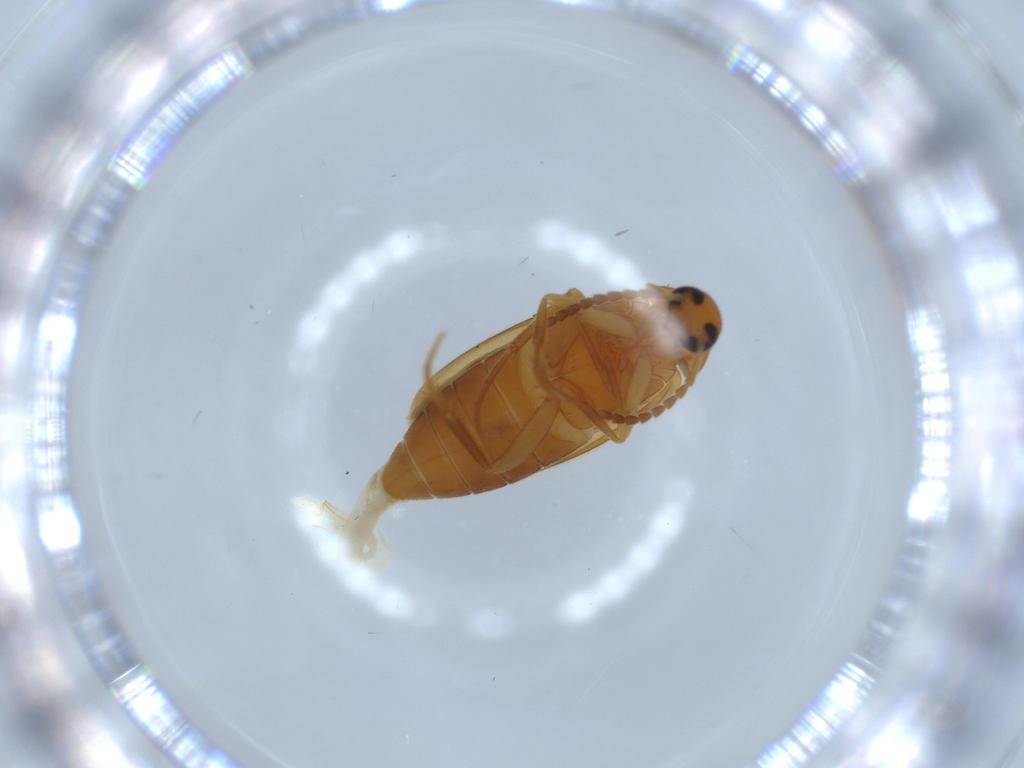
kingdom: Animalia
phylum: Arthropoda
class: Insecta
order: Coleoptera
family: Scraptiidae
